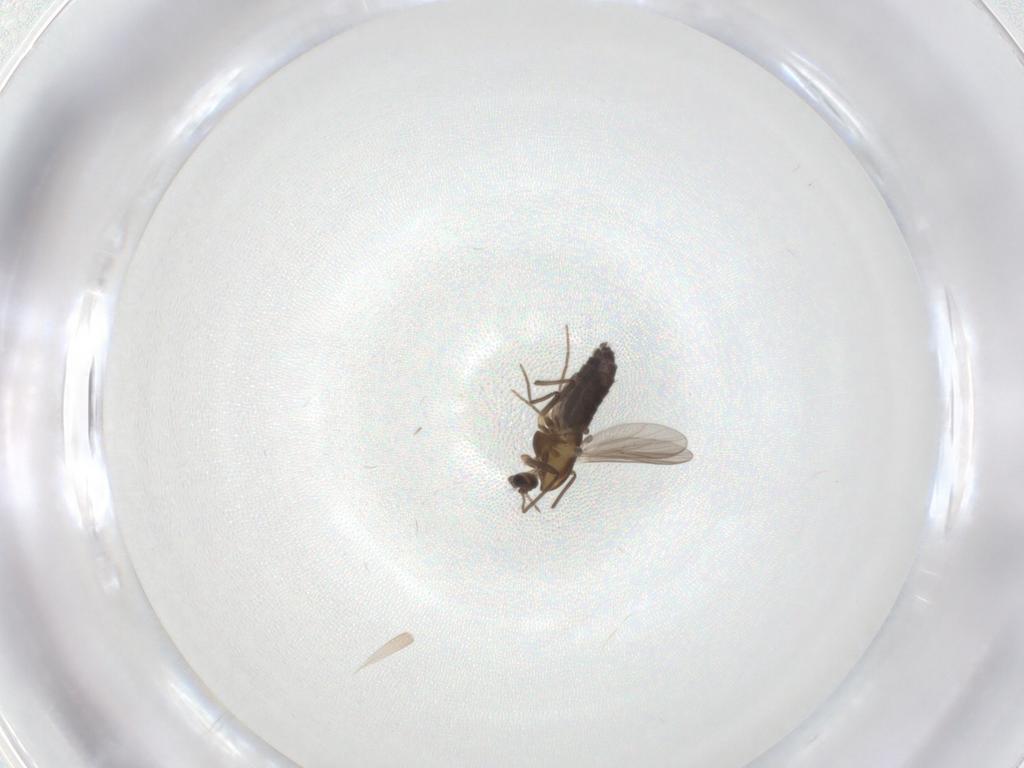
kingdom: Animalia
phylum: Arthropoda
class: Insecta
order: Diptera
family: Chironomidae
